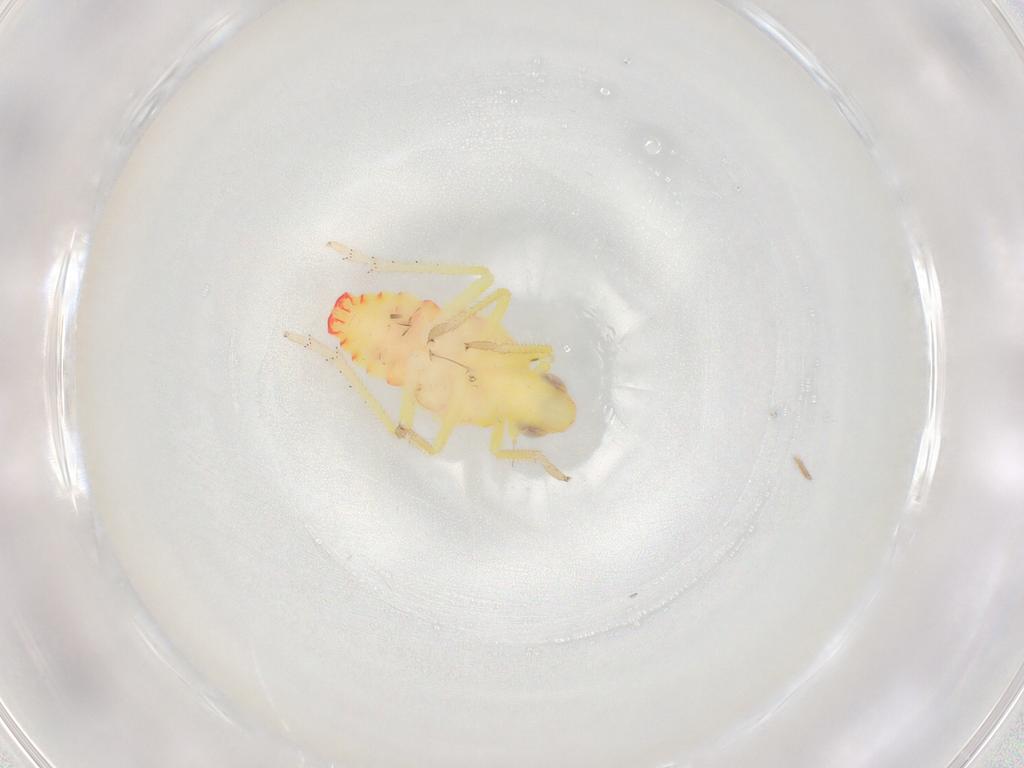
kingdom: Animalia
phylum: Arthropoda
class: Insecta
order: Hemiptera
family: Tropiduchidae
